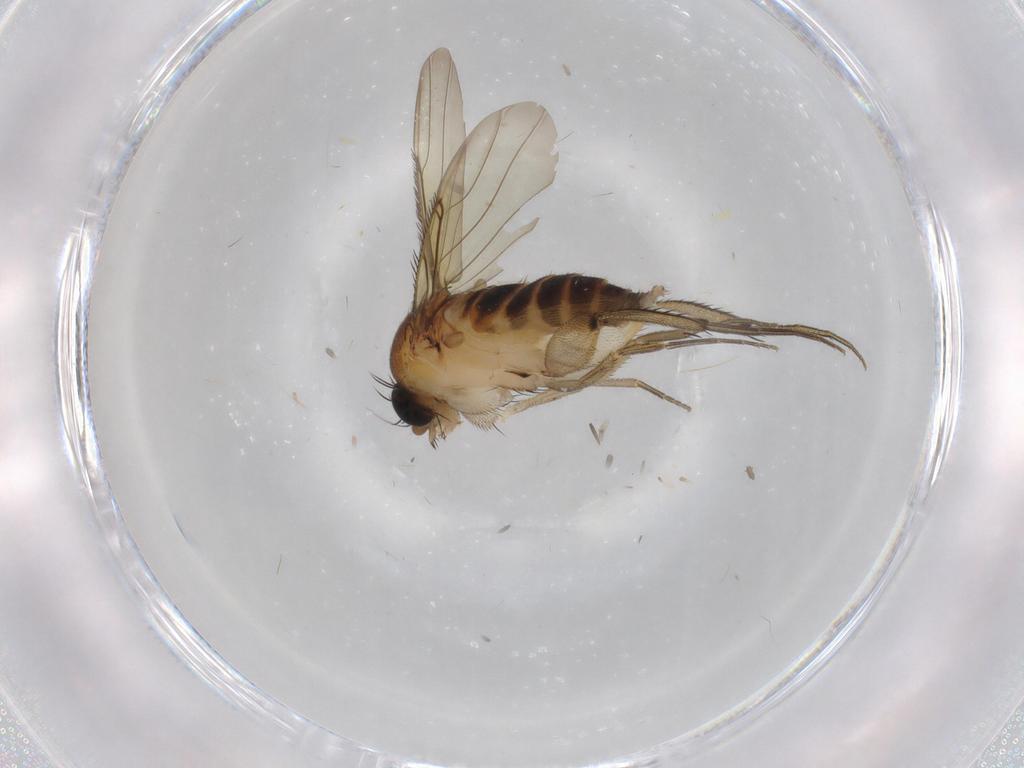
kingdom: Animalia
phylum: Arthropoda
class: Insecta
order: Diptera
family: Phoridae
